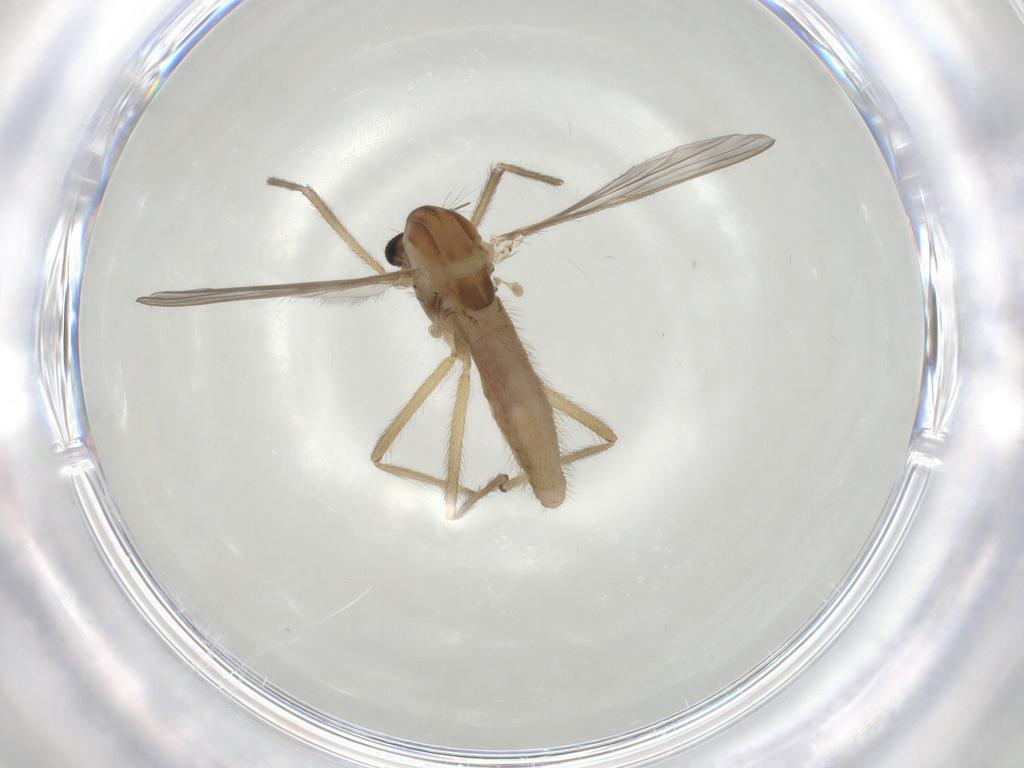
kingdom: Animalia
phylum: Arthropoda
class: Insecta
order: Diptera
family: Chironomidae
